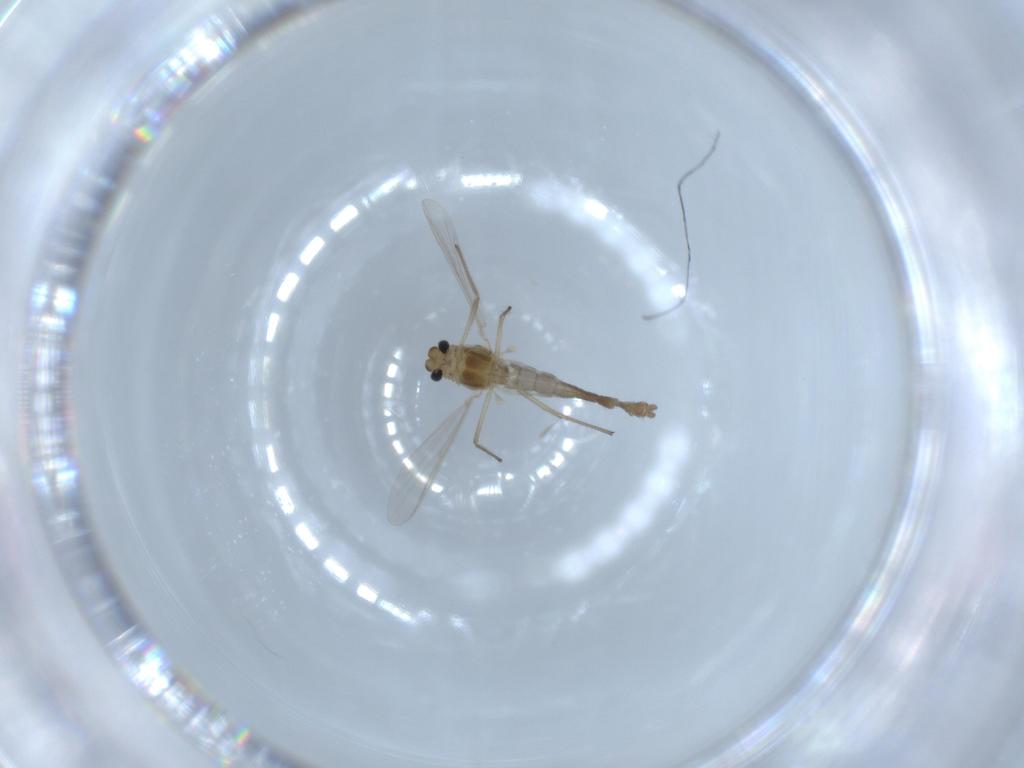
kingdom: Animalia
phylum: Arthropoda
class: Insecta
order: Diptera
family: Chironomidae
